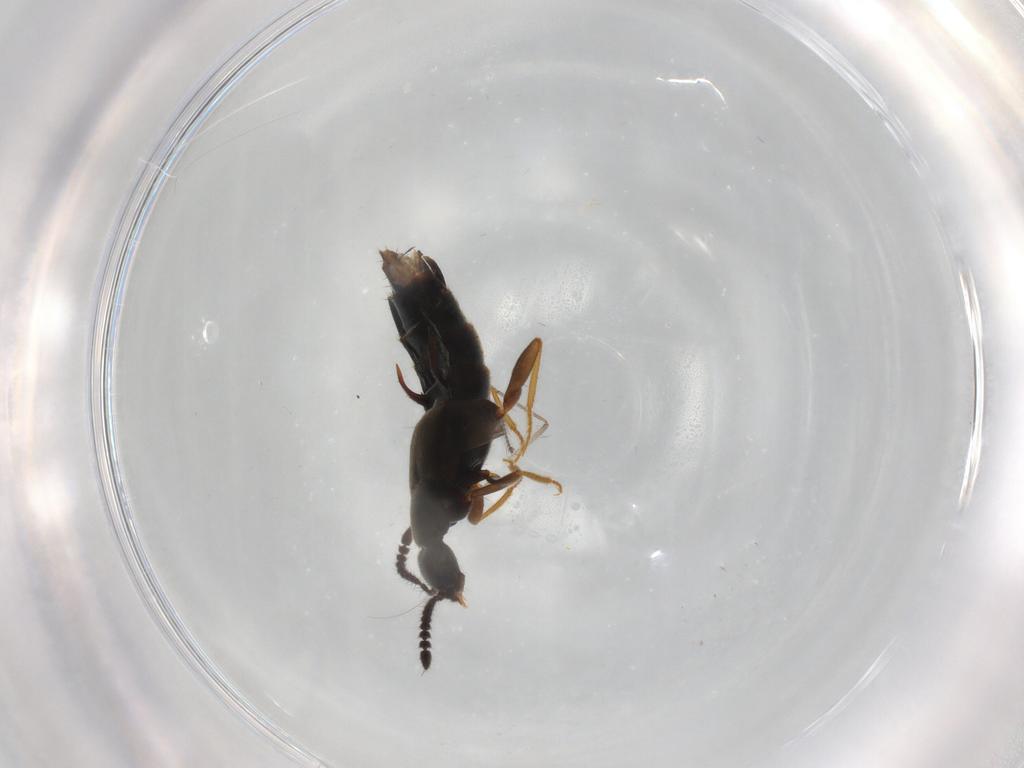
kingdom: Animalia
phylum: Arthropoda
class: Insecta
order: Coleoptera
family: Staphylinidae
